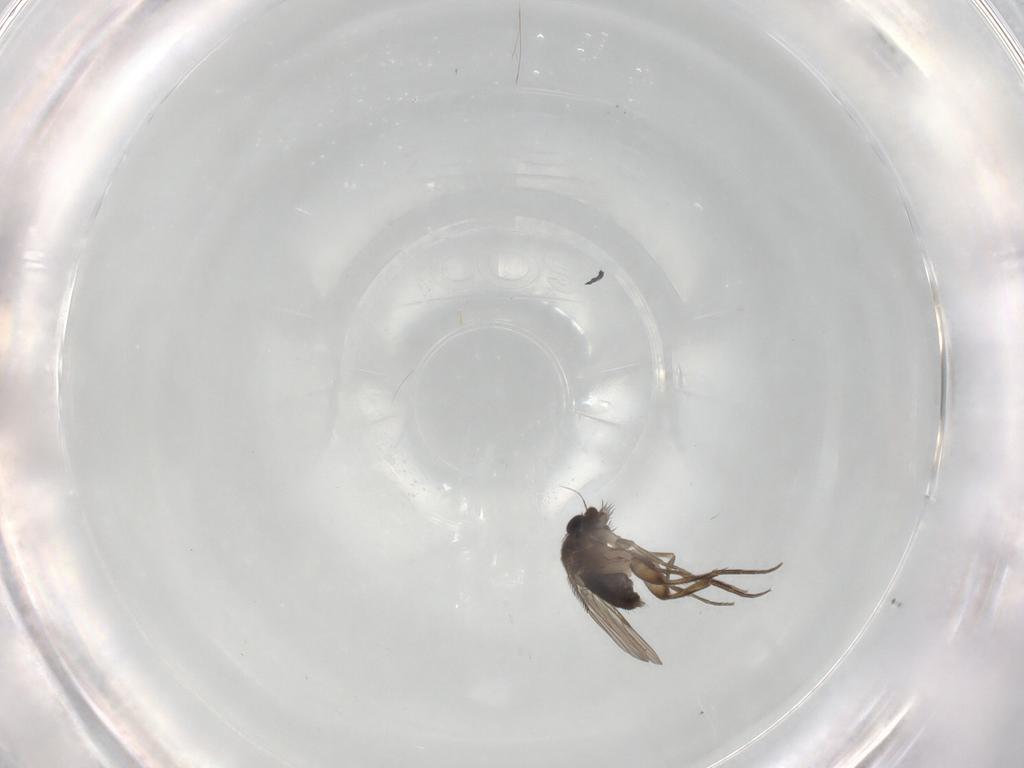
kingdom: Animalia
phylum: Arthropoda
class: Insecta
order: Diptera
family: Phoridae
